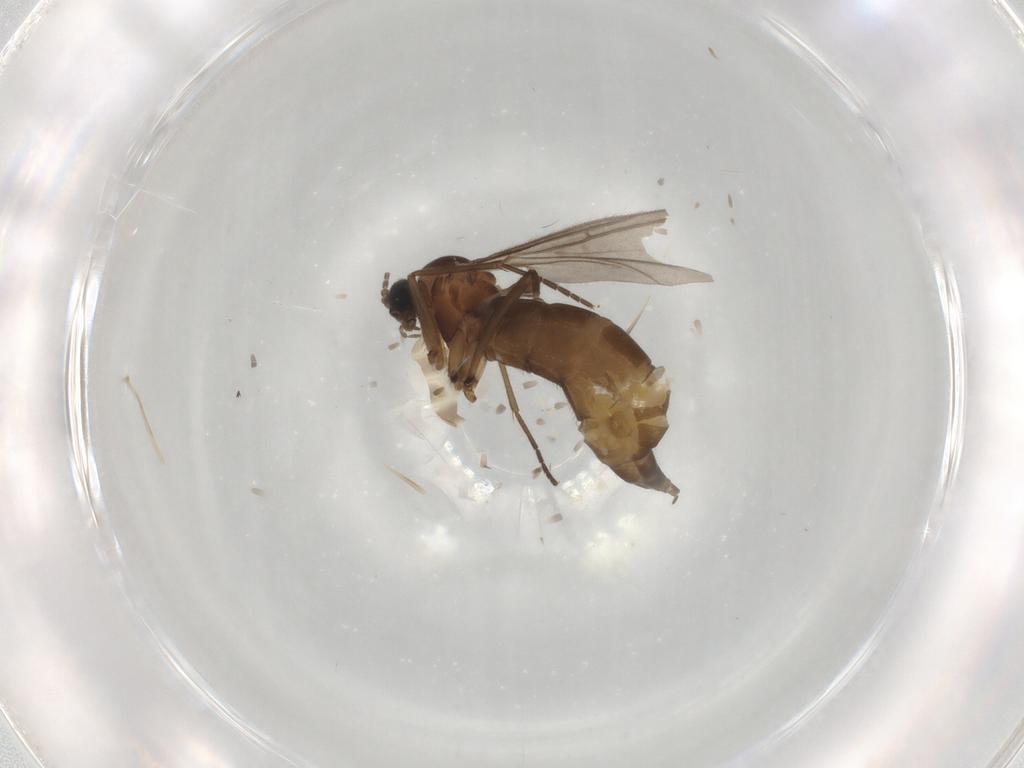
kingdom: Animalia
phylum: Arthropoda
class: Insecta
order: Diptera
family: Sciaridae
